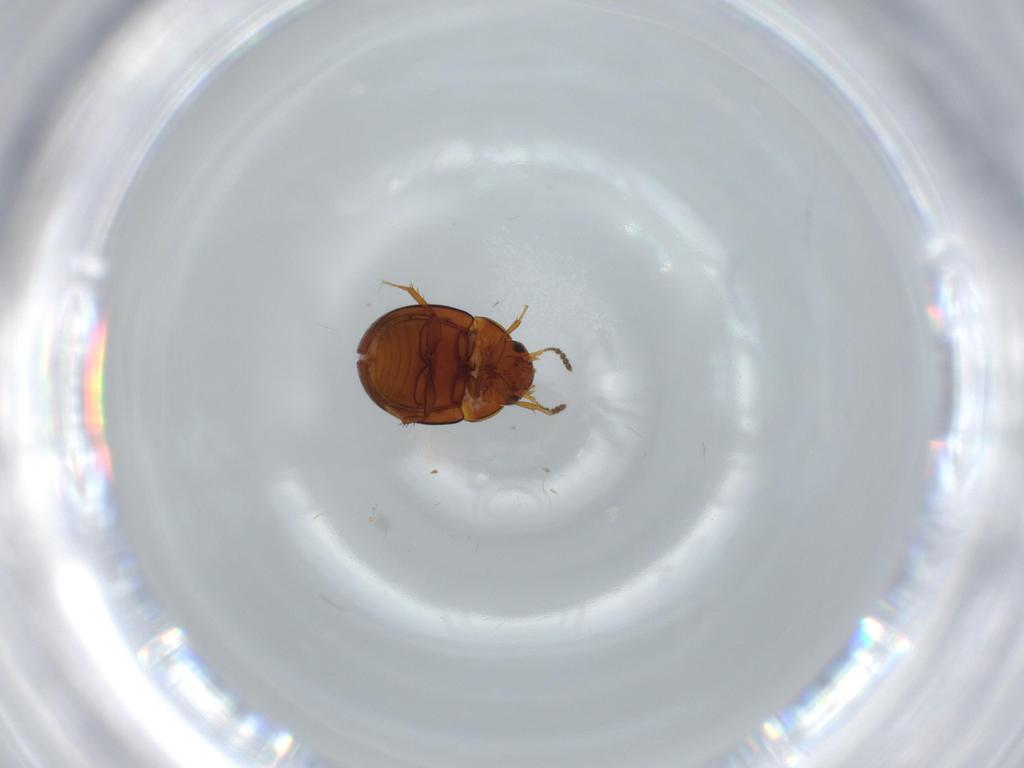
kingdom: Animalia
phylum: Arthropoda
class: Insecta
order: Coleoptera
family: Leiodidae
